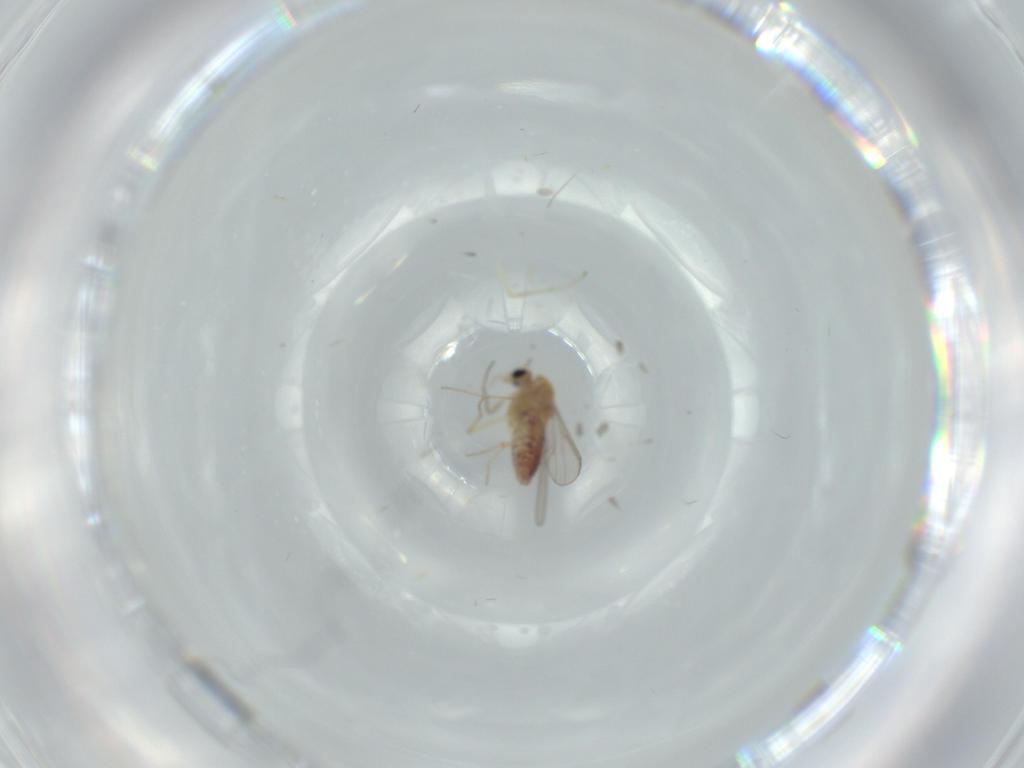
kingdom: Animalia
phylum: Arthropoda
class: Insecta
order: Diptera
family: Chironomidae
